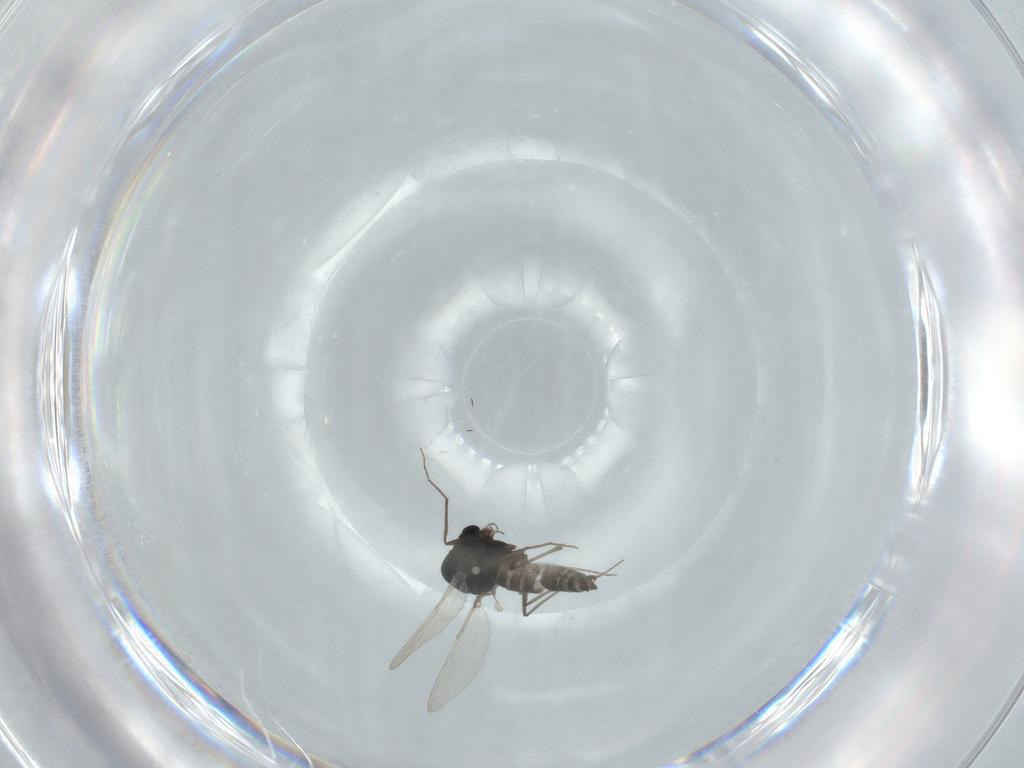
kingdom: Animalia
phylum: Arthropoda
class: Insecta
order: Diptera
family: Chironomidae
